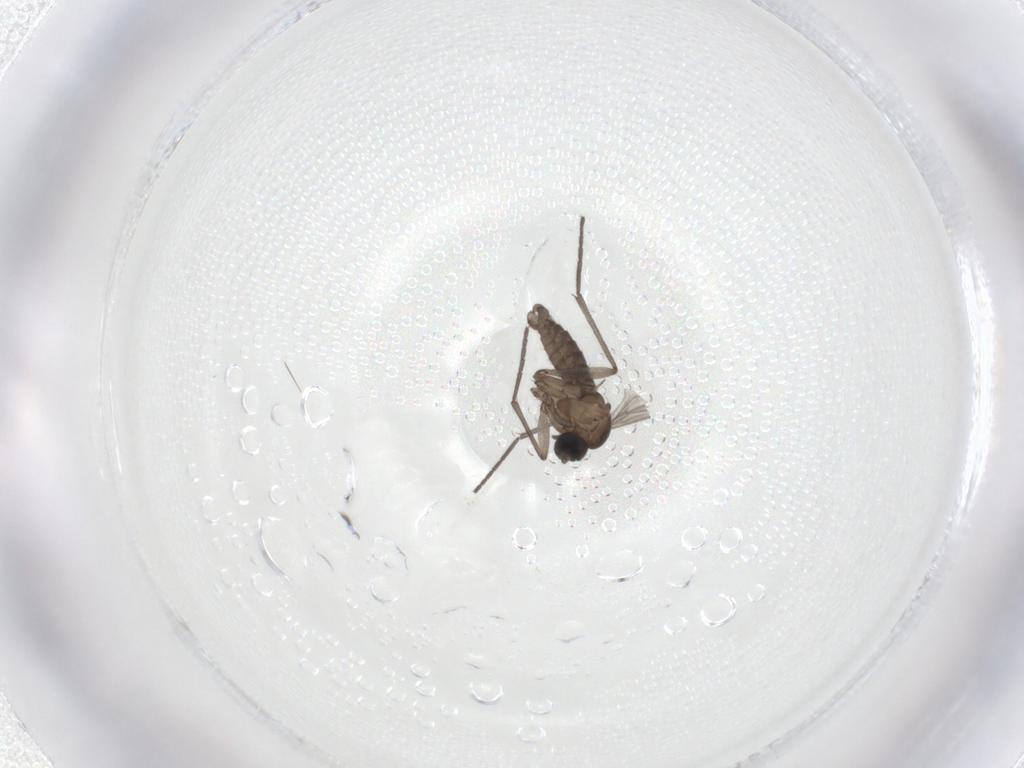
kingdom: Animalia
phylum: Arthropoda
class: Insecta
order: Diptera
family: Sciaridae
